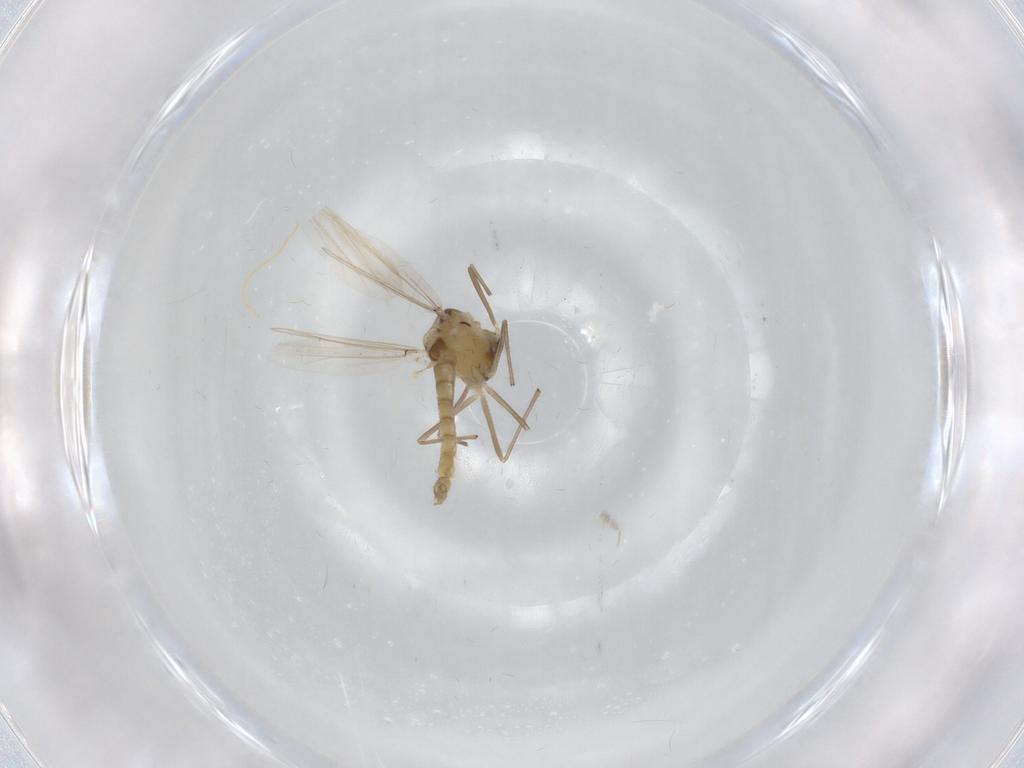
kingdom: Animalia
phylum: Arthropoda
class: Insecta
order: Diptera
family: Chironomidae
